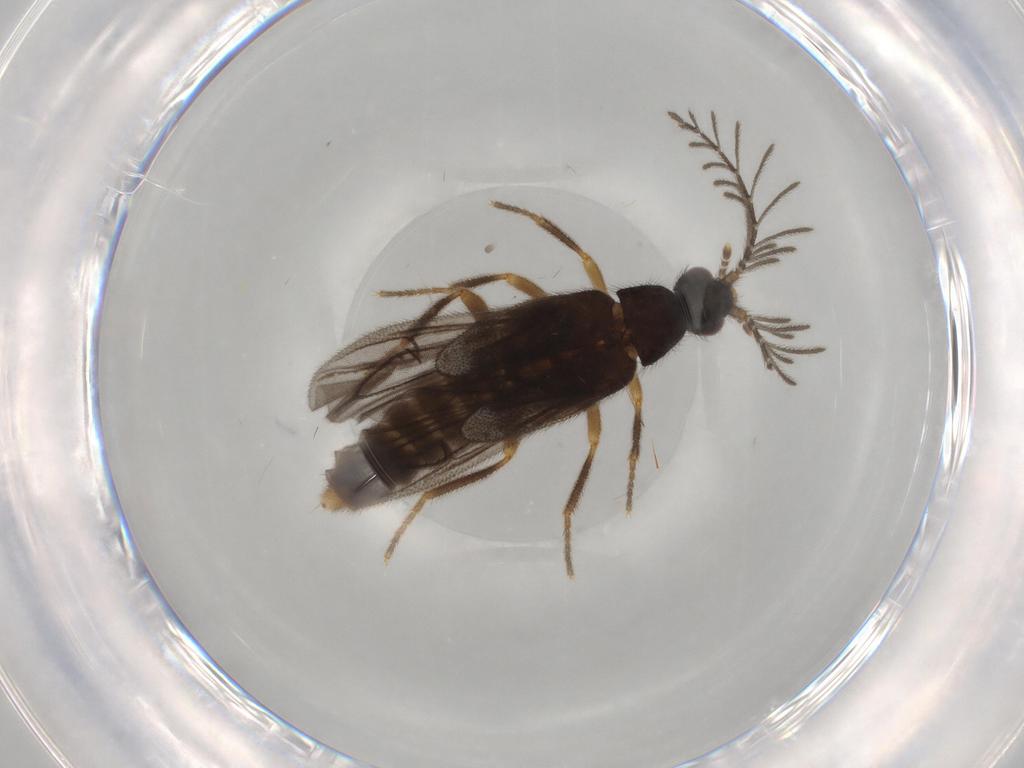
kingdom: Animalia
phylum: Arthropoda
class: Insecta
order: Coleoptera
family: Chrysomelidae
